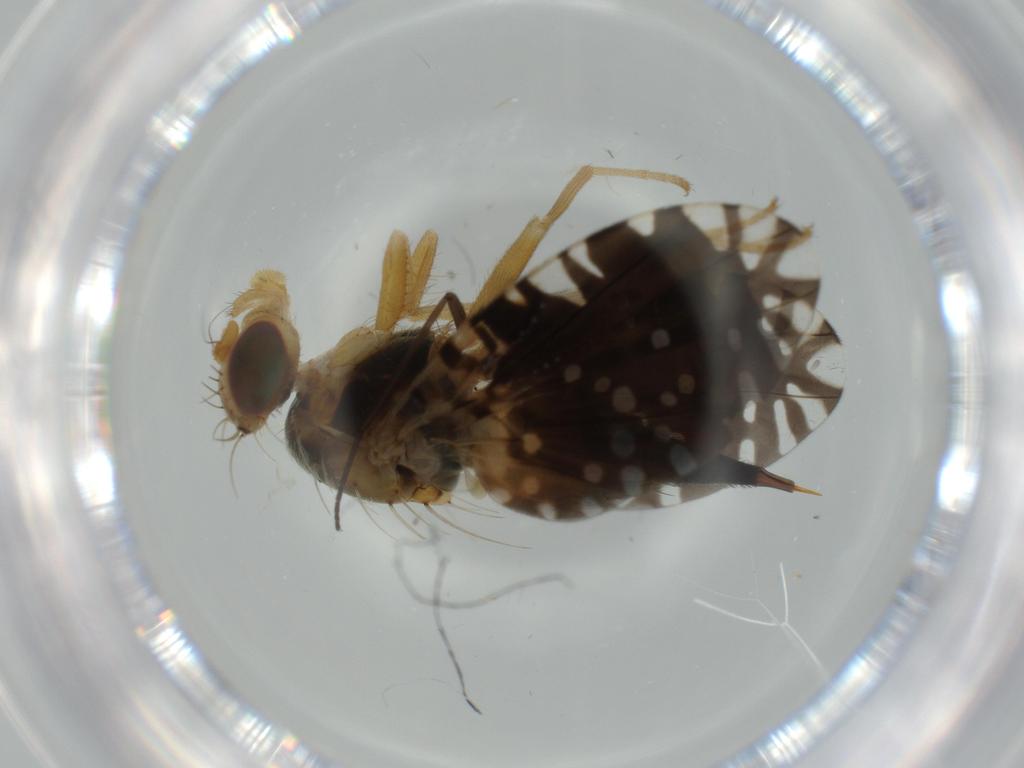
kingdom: Animalia
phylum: Arthropoda
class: Insecta
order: Diptera
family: Tephritidae
